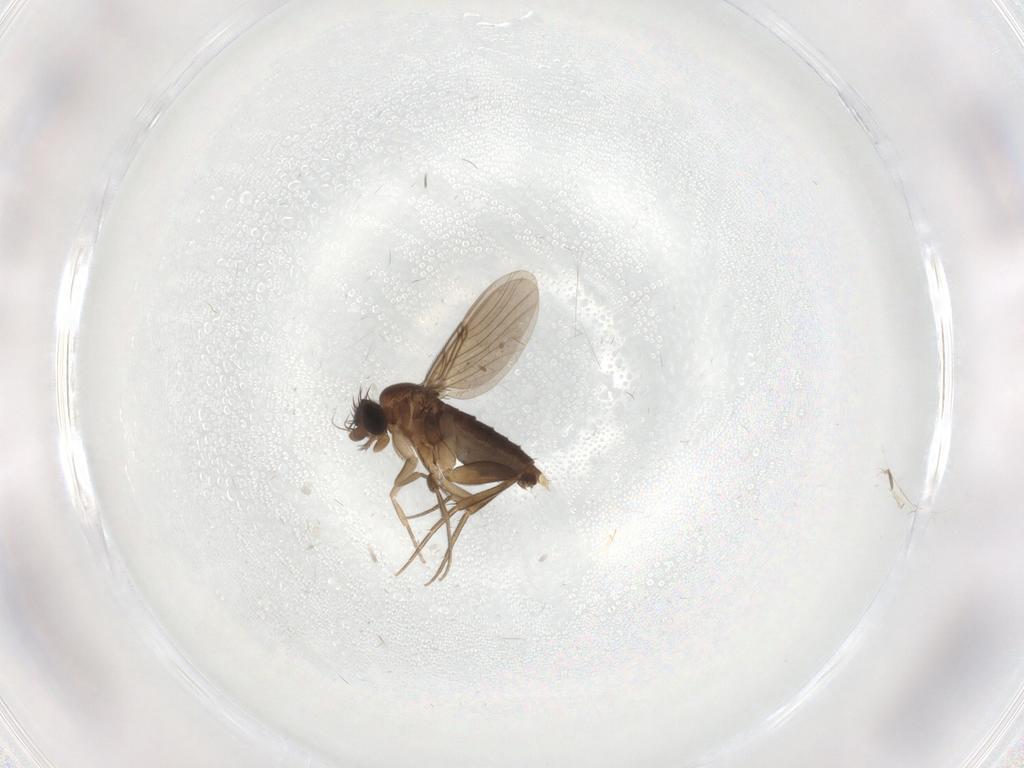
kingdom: Animalia
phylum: Arthropoda
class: Insecta
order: Diptera
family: Phoridae
